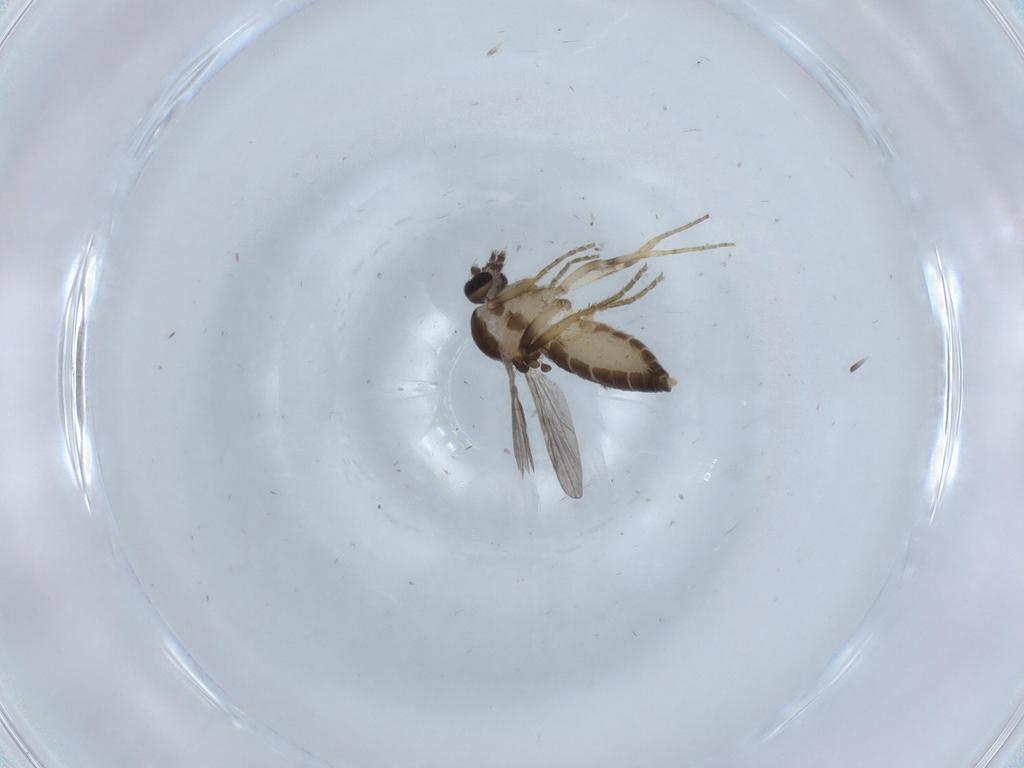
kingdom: Animalia
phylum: Arthropoda
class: Insecta
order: Diptera
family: Ceratopogonidae
